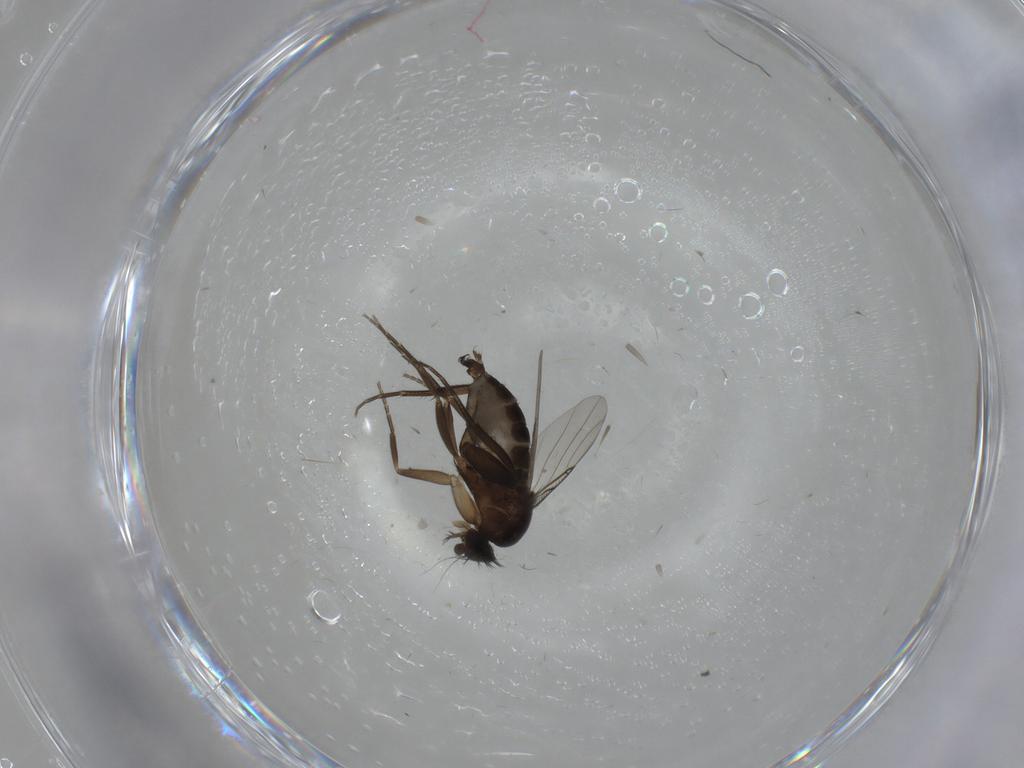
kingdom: Animalia
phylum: Arthropoda
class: Insecta
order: Diptera
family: Phoridae
